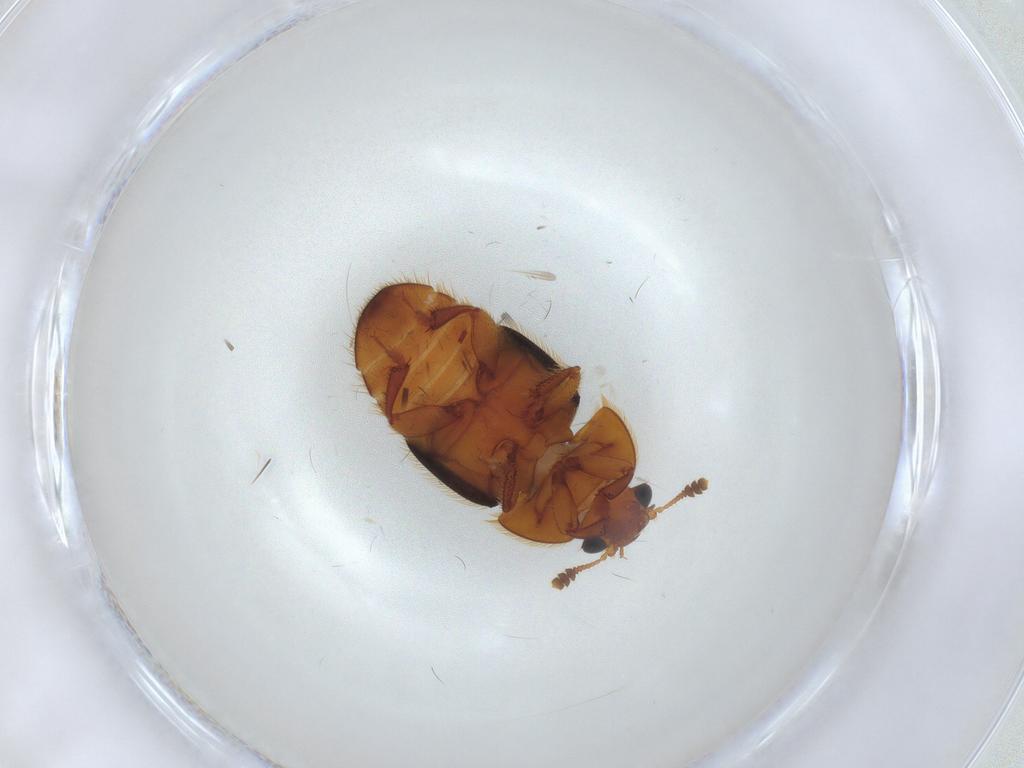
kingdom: Animalia
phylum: Arthropoda
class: Insecta
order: Coleoptera
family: Nitidulidae
